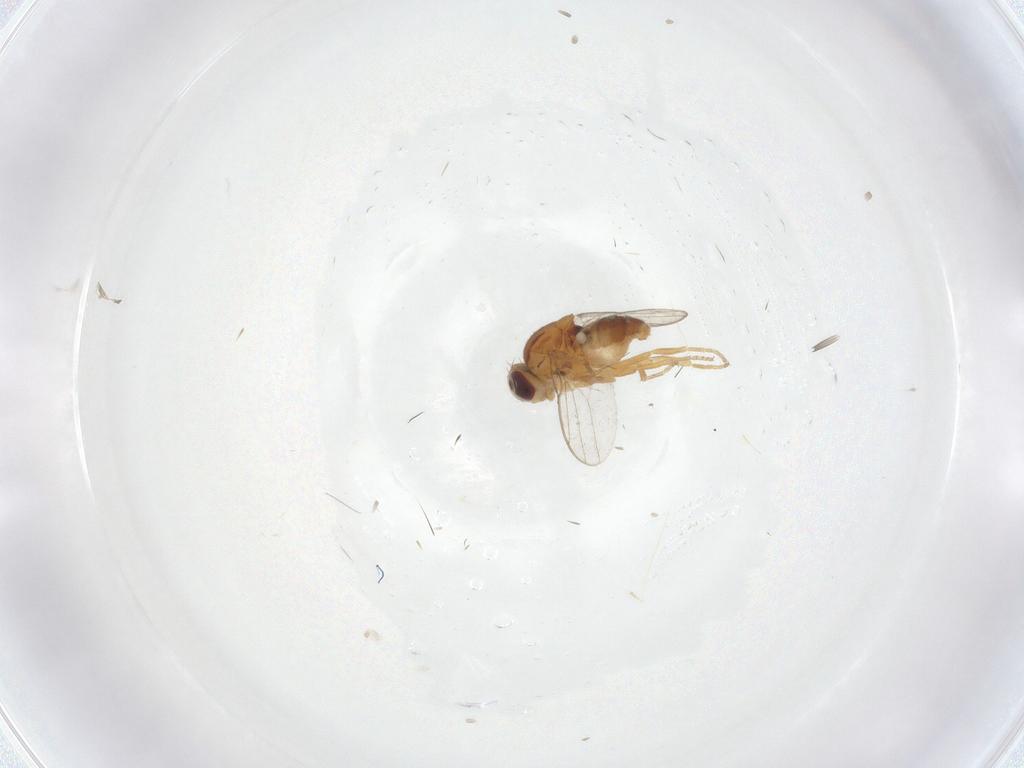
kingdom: Animalia
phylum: Arthropoda
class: Insecta
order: Diptera
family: Chloropidae
